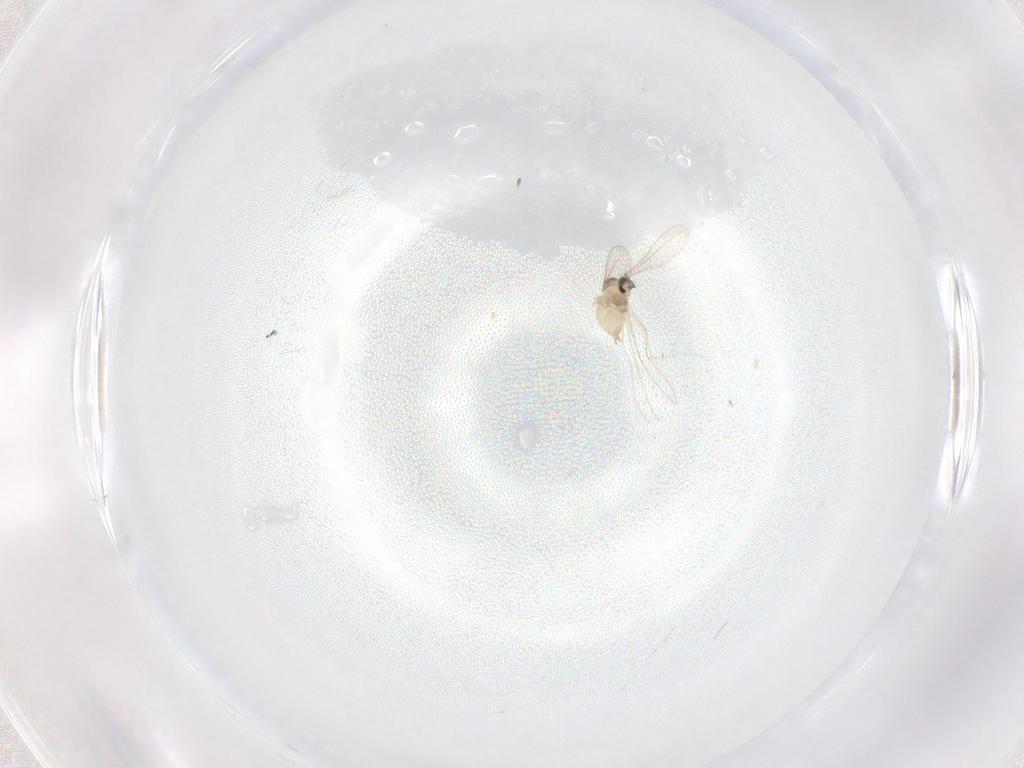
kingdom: Animalia
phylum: Arthropoda
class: Insecta
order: Diptera
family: Cecidomyiidae
